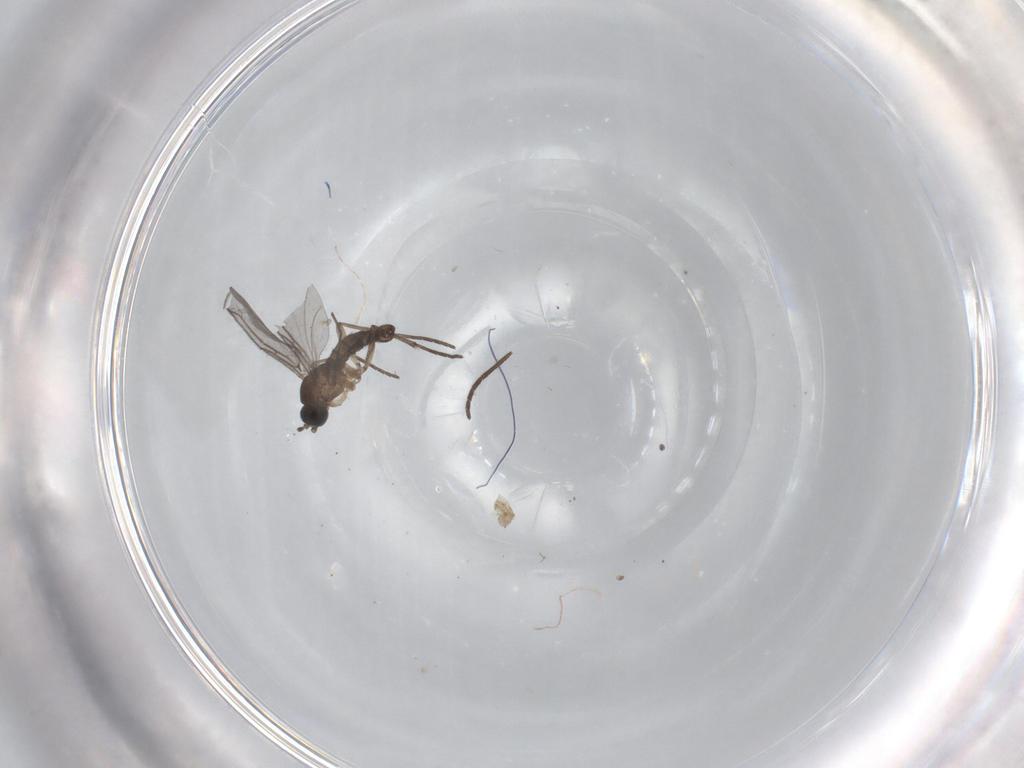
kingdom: Animalia
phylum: Arthropoda
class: Insecta
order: Diptera
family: Sciaridae
